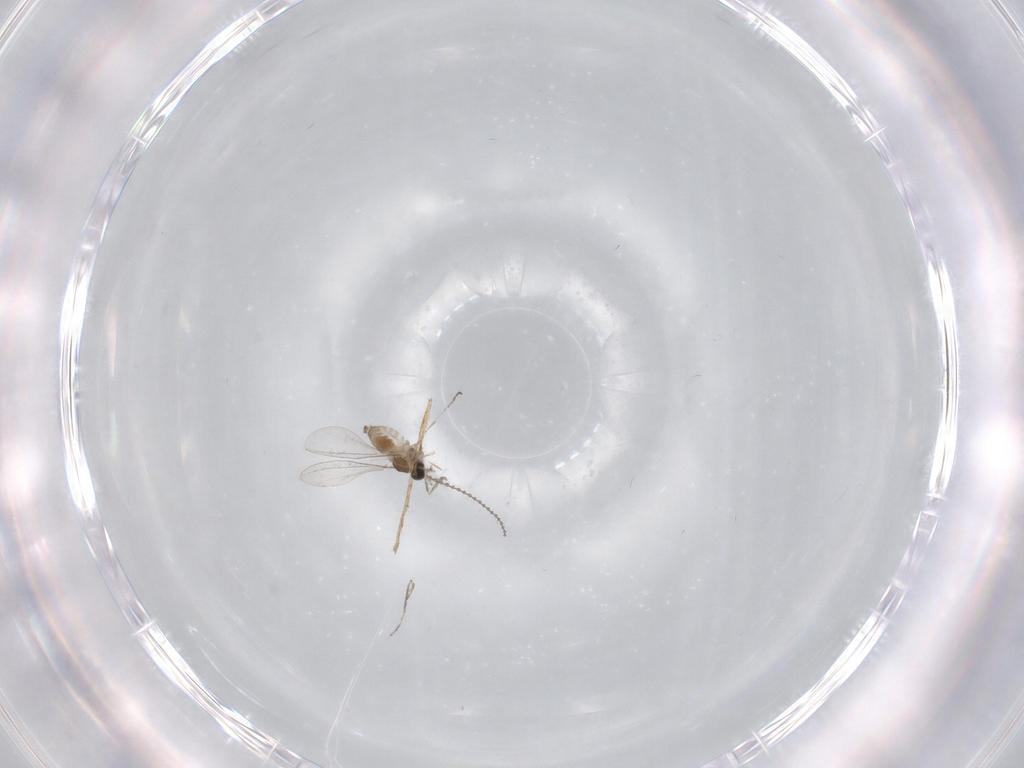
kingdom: Animalia
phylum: Arthropoda
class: Insecta
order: Diptera
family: Cecidomyiidae
